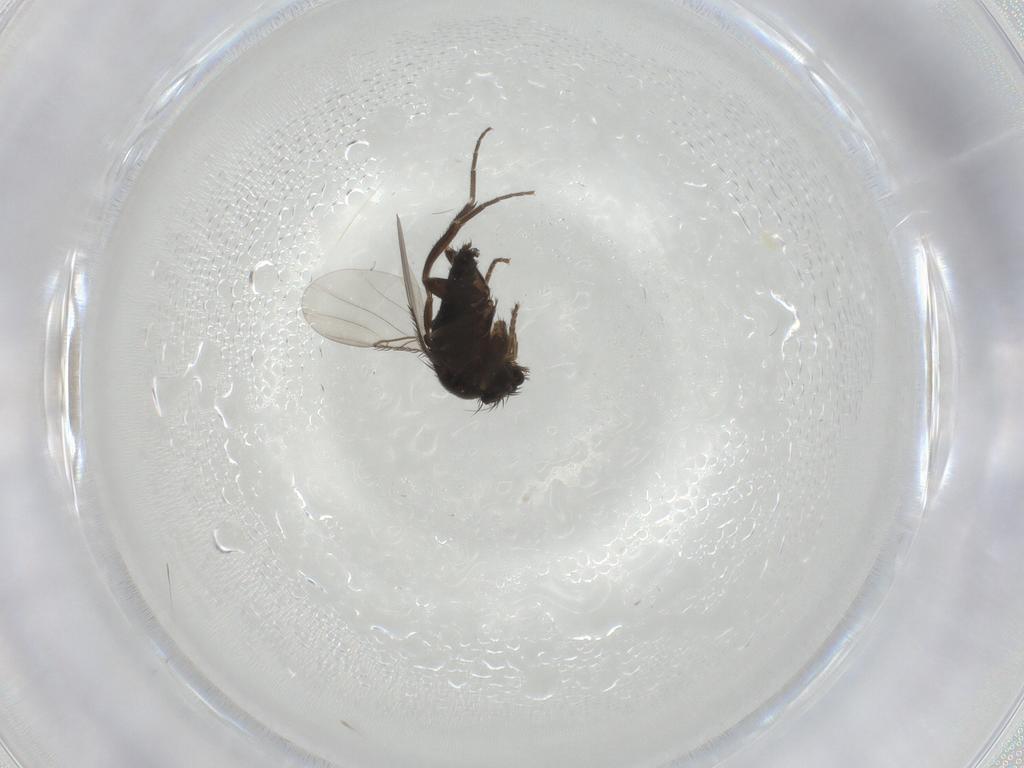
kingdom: Animalia
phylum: Arthropoda
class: Insecta
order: Diptera
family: Phoridae
